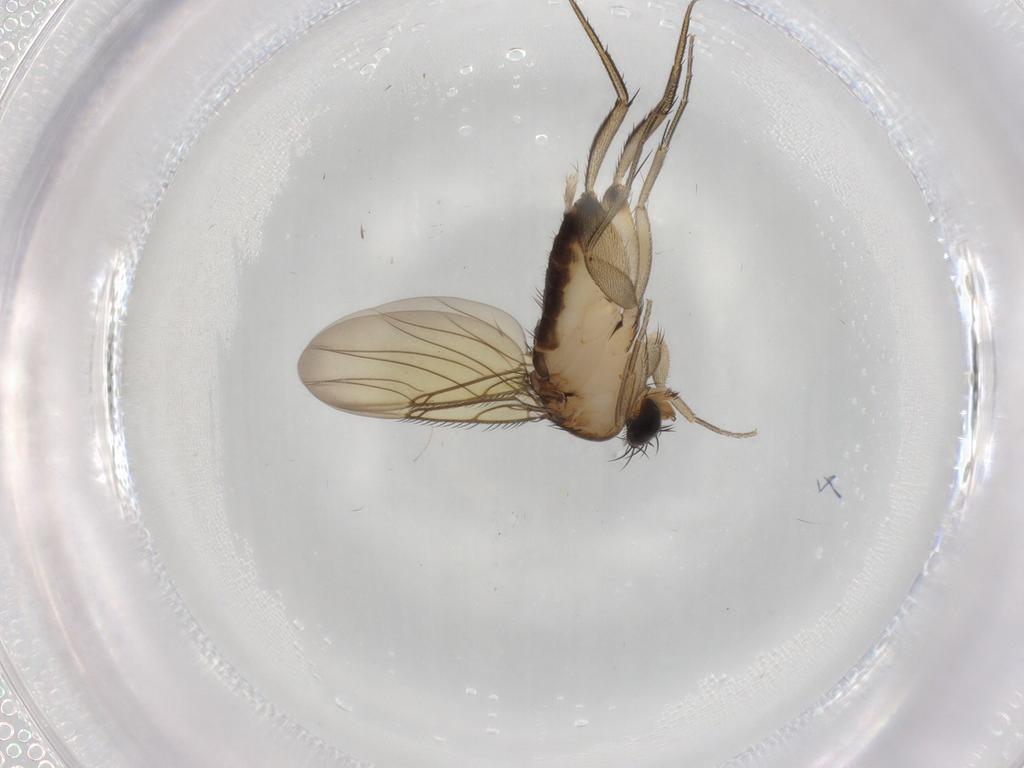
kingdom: Animalia
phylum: Arthropoda
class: Insecta
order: Diptera
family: Phoridae
